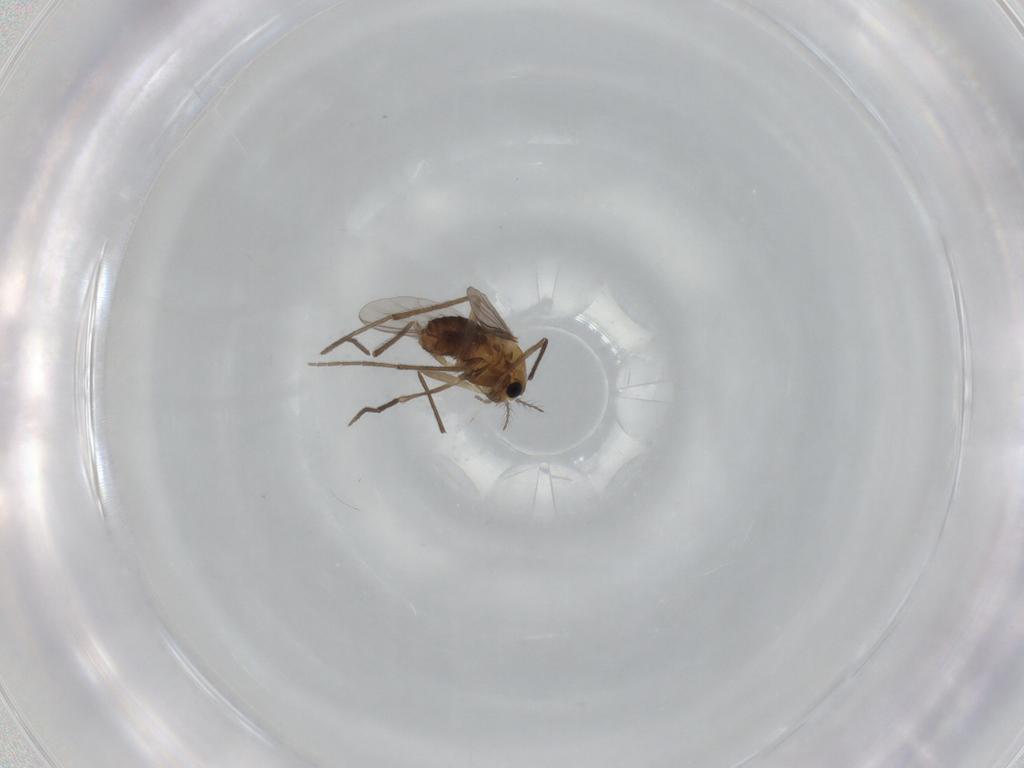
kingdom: Animalia
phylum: Arthropoda
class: Insecta
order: Diptera
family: Chironomidae
